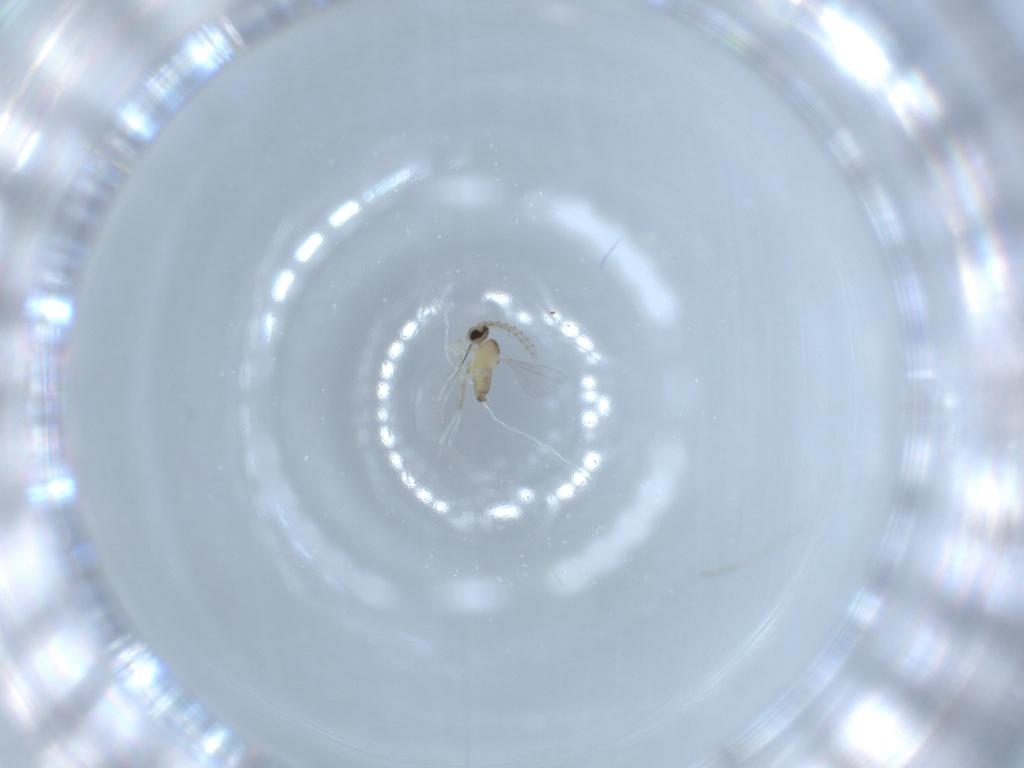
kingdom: Animalia
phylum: Arthropoda
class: Insecta
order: Diptera
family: Cecidomyiidae
